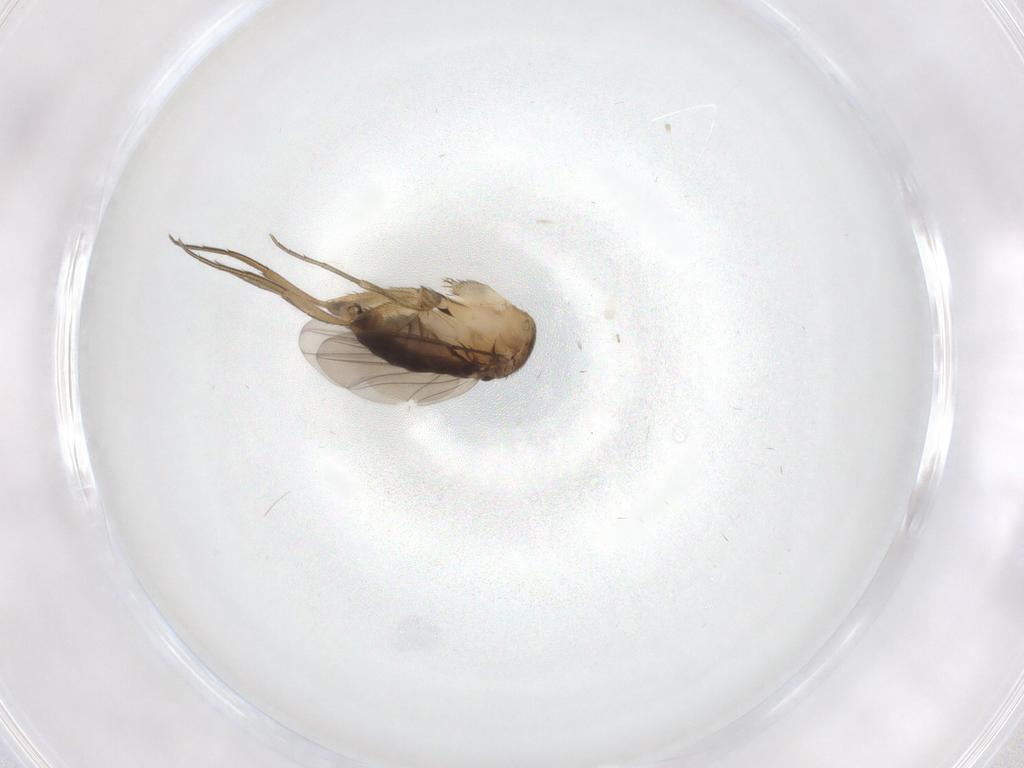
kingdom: Animalia
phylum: Arthropoda
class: Insecta
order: Diptera
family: Phoridae
